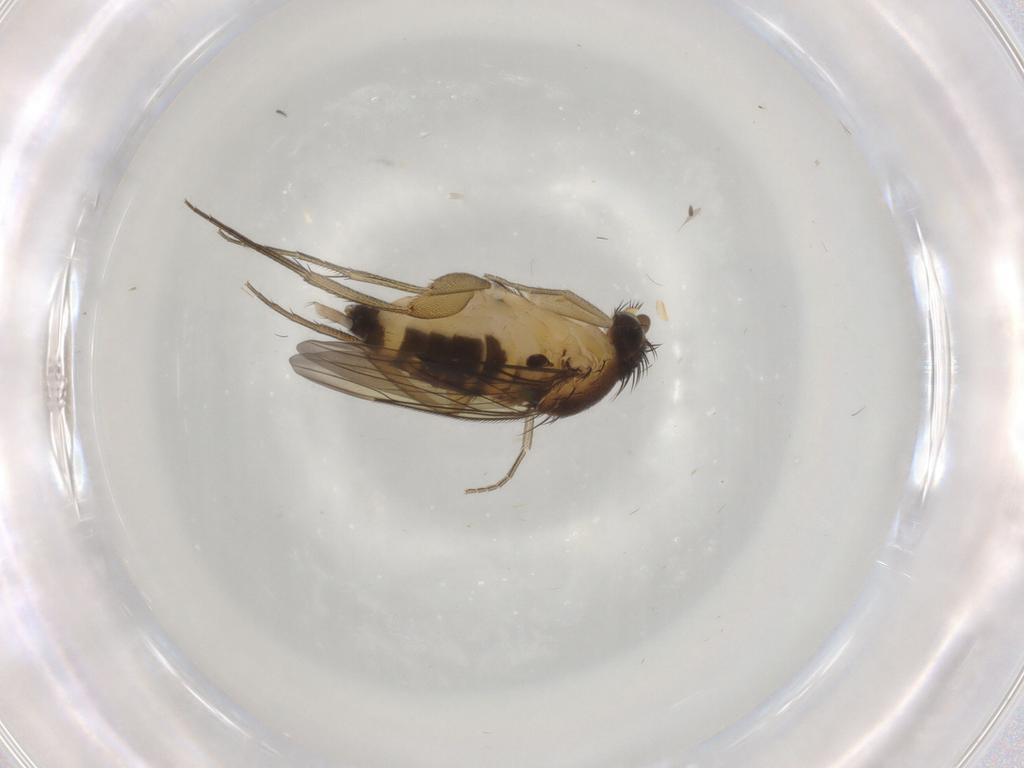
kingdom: Animalia
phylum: Arthropoda
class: Insecta
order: Diptera
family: Phoridae
